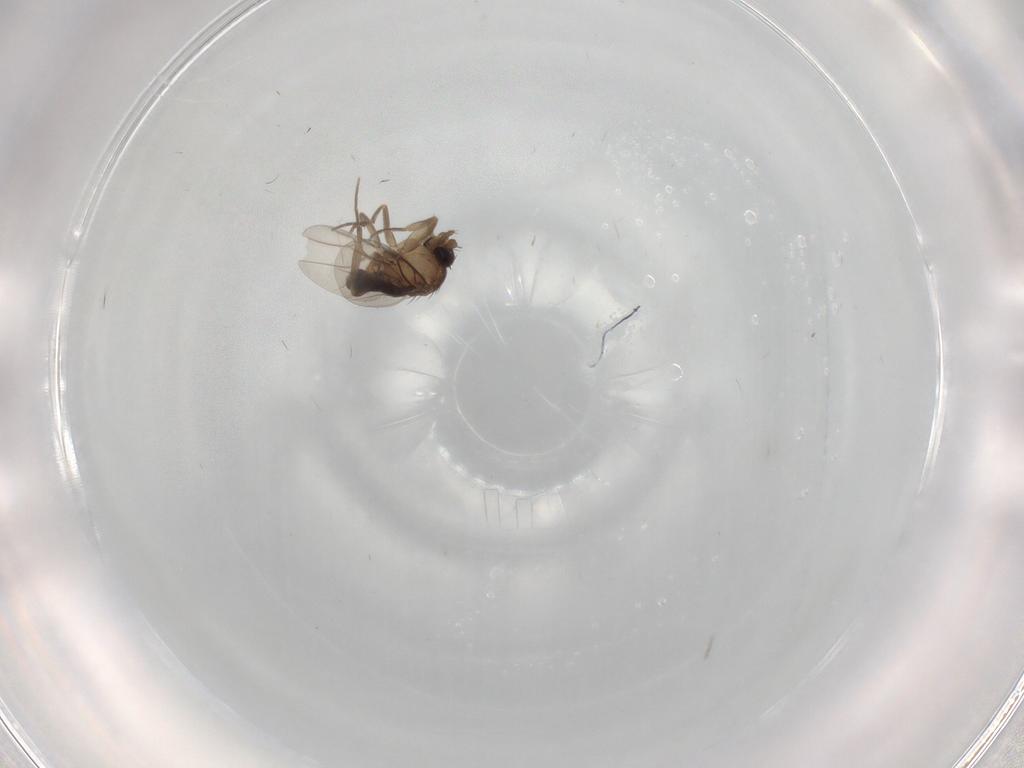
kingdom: Animalia
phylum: Arthropoda
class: Insecta
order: Diptera
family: Phoridae
